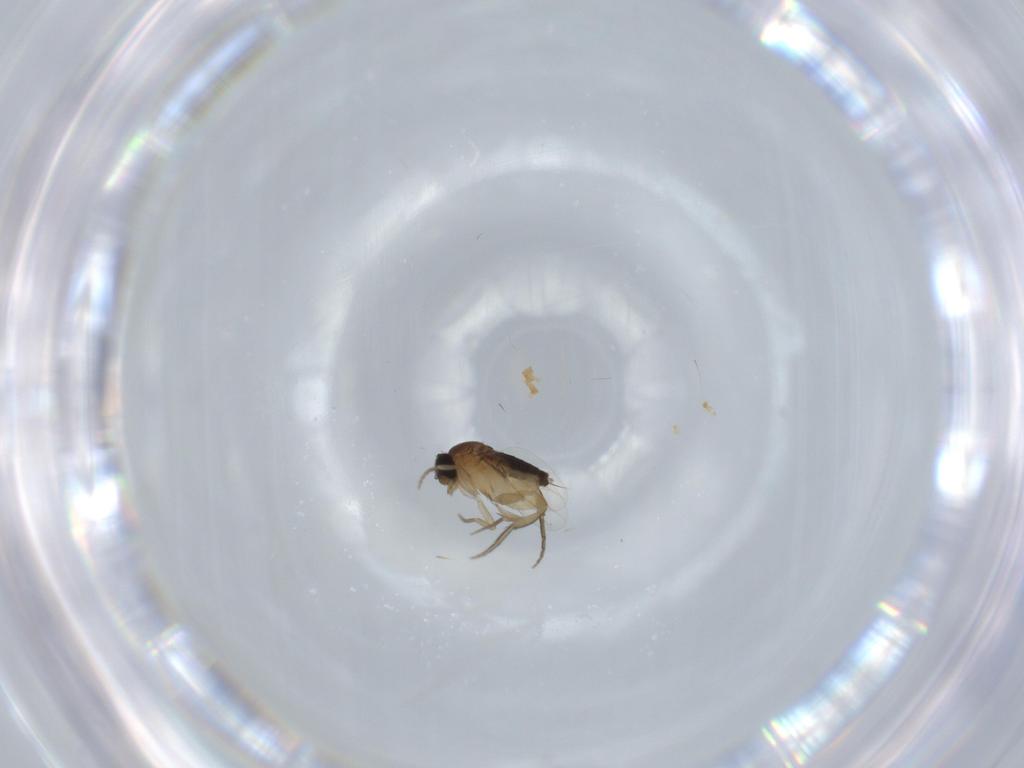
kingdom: Animalia
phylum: Arthropoda
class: Insecta
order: Diptera
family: Phoridae
